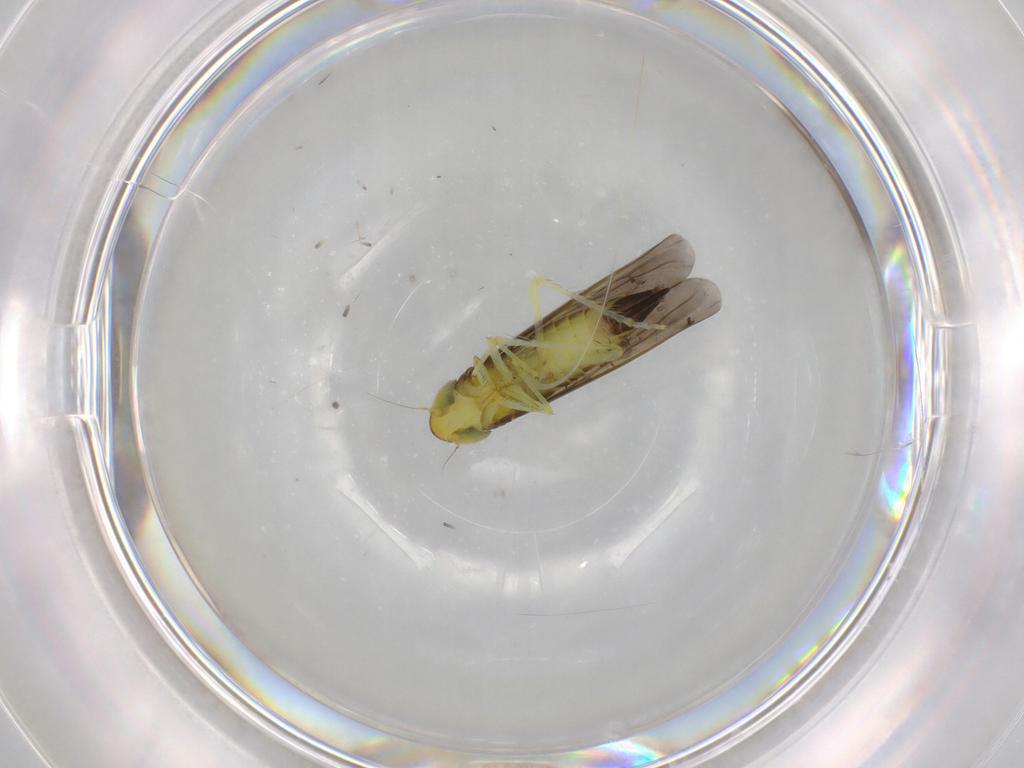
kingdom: Animalia
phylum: Arthropoda
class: Insecta
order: Hemiptera
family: Cicadellidae
